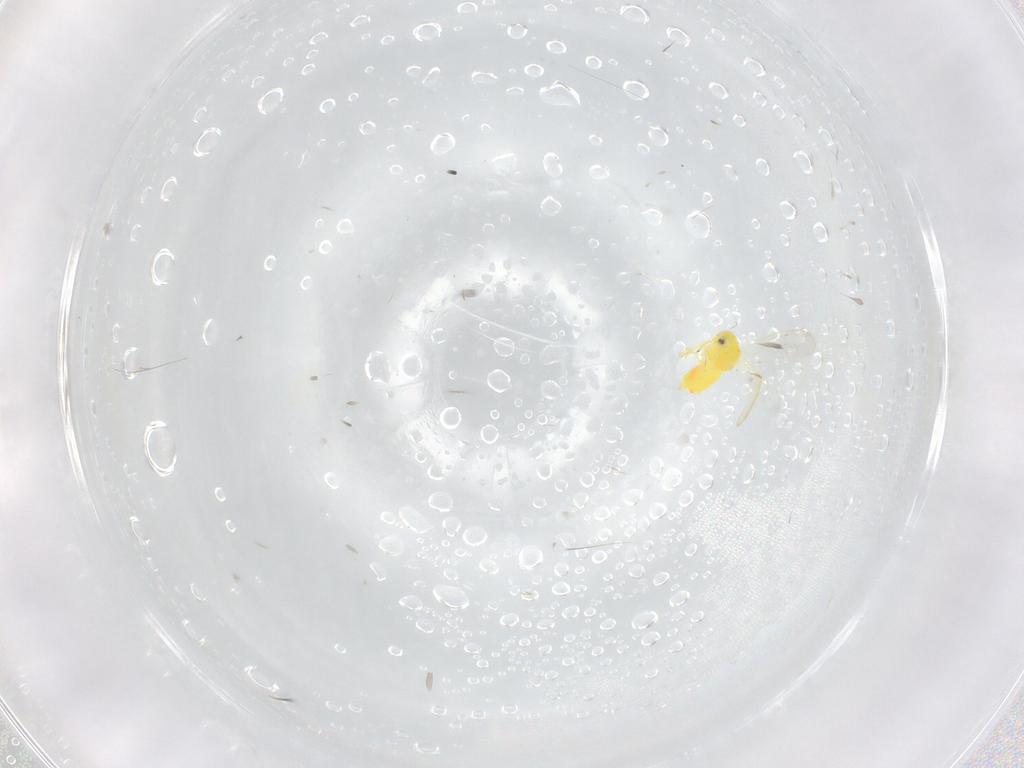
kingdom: Animalia
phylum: Arthropoda
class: Insecta
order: Hemiptera
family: Aleyrodidae
